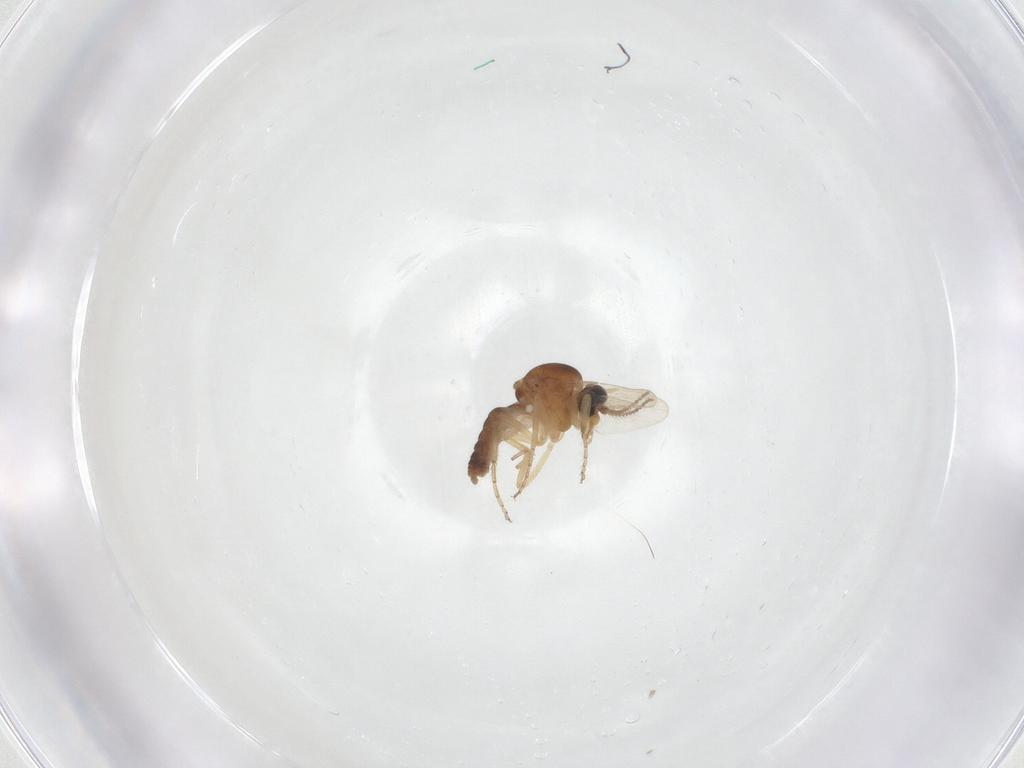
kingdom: Animalia
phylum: Arthropoda
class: Insecta
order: Diptera
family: Ceratopogonidae
